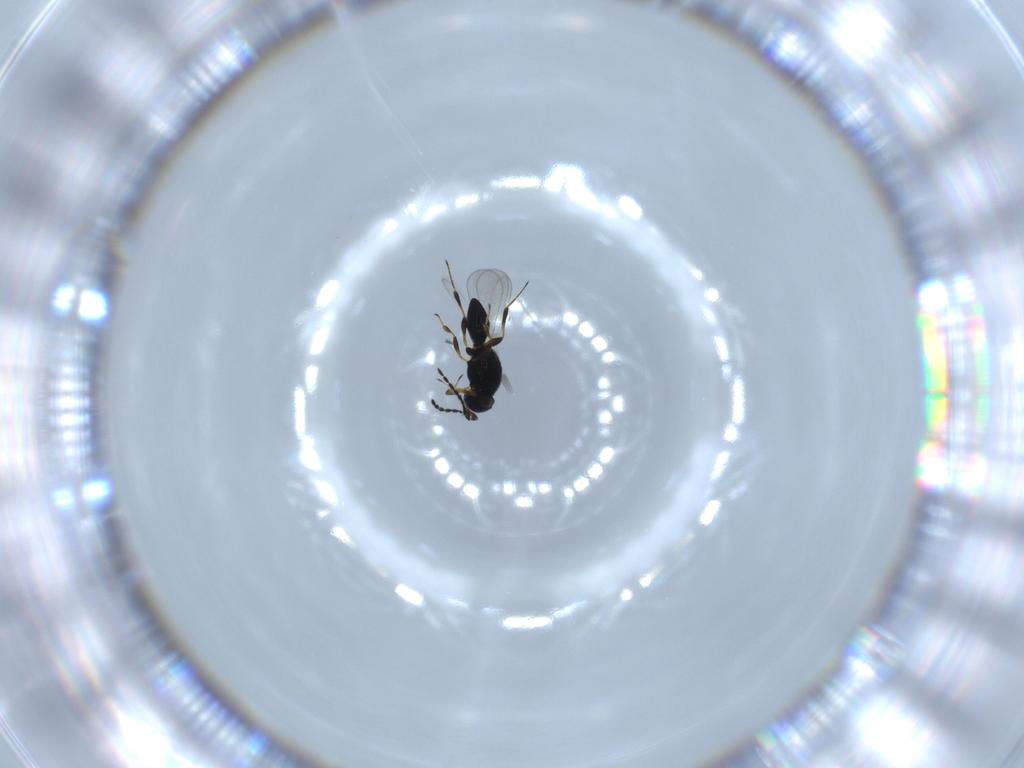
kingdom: Animalia
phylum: Arthropoda
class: Insecta
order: Hymenoptera
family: Platygastridae
